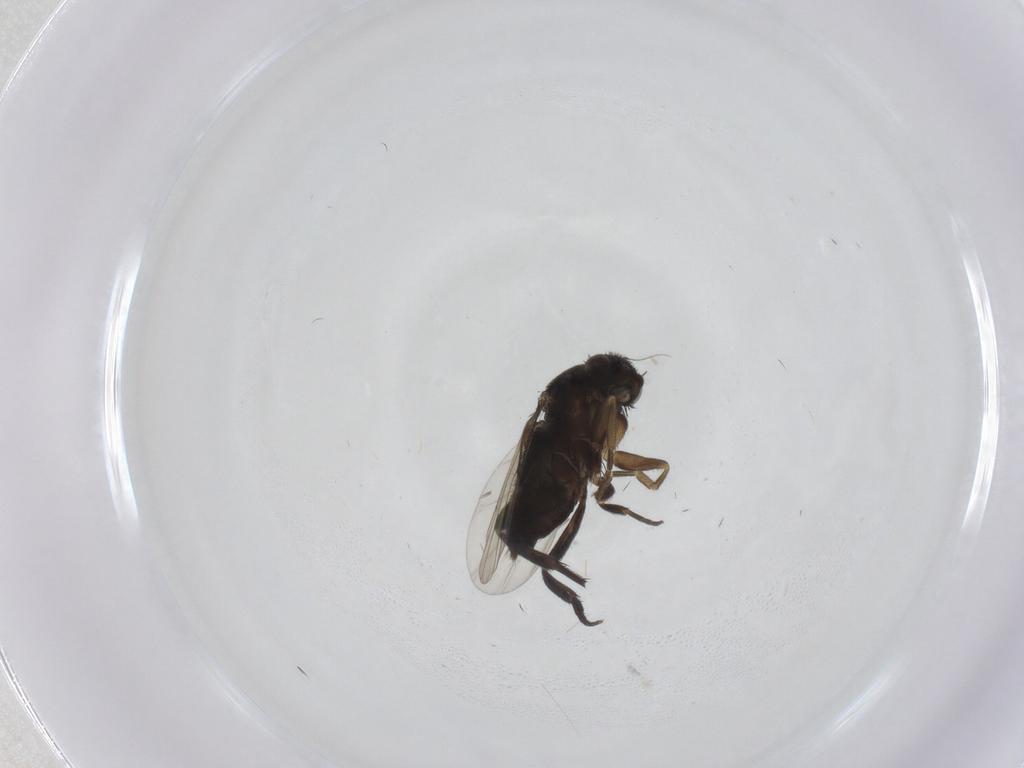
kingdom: Animalia
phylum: Arthropoda
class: Insecta
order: Diptera
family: Phoridae
